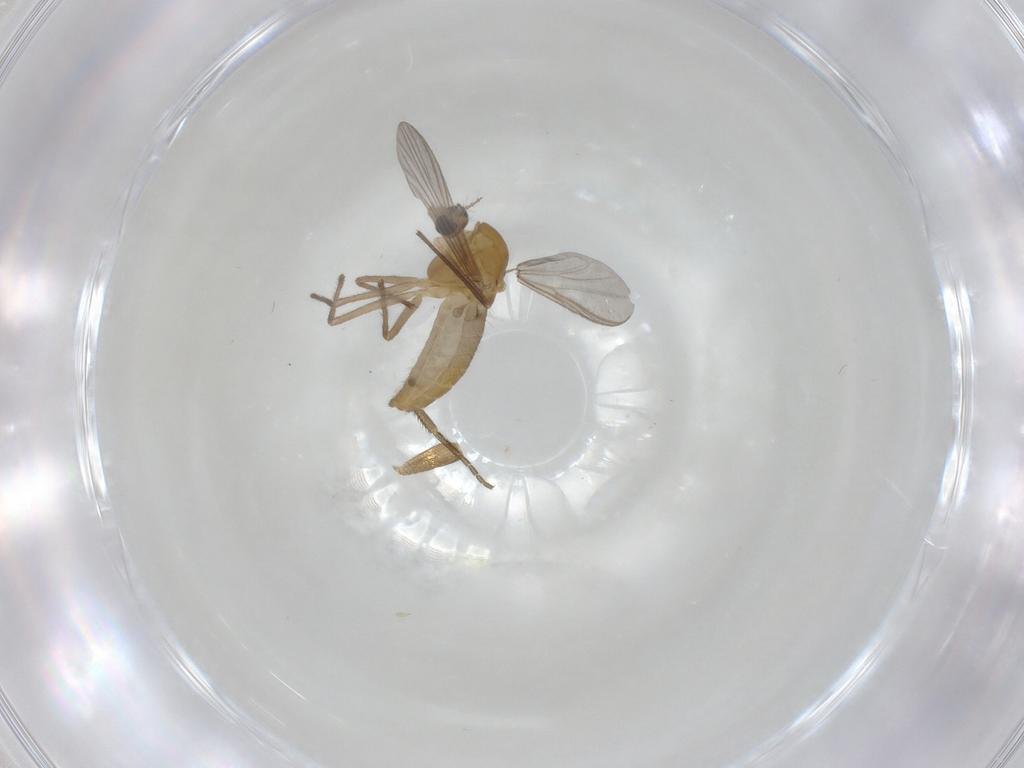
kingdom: Animalia
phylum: Arthropoda
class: Insecta
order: Diptera
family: Chironomidae
